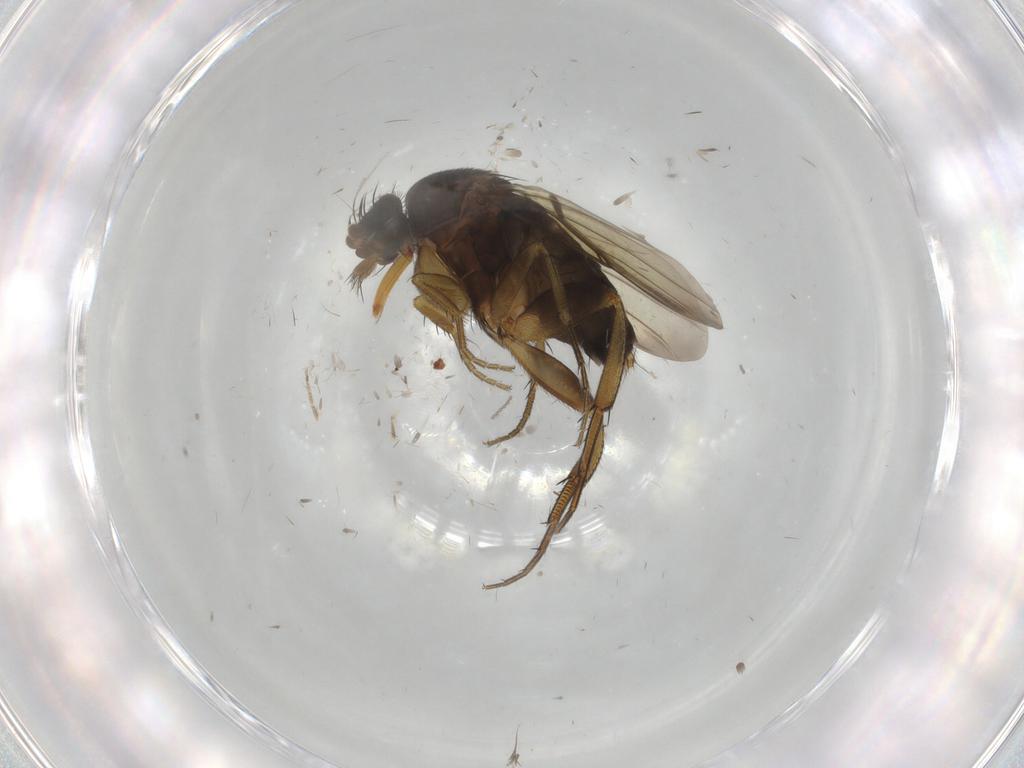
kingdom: Animalia
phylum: Arthropoda
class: Insecta
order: Diptera
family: Phoridae
